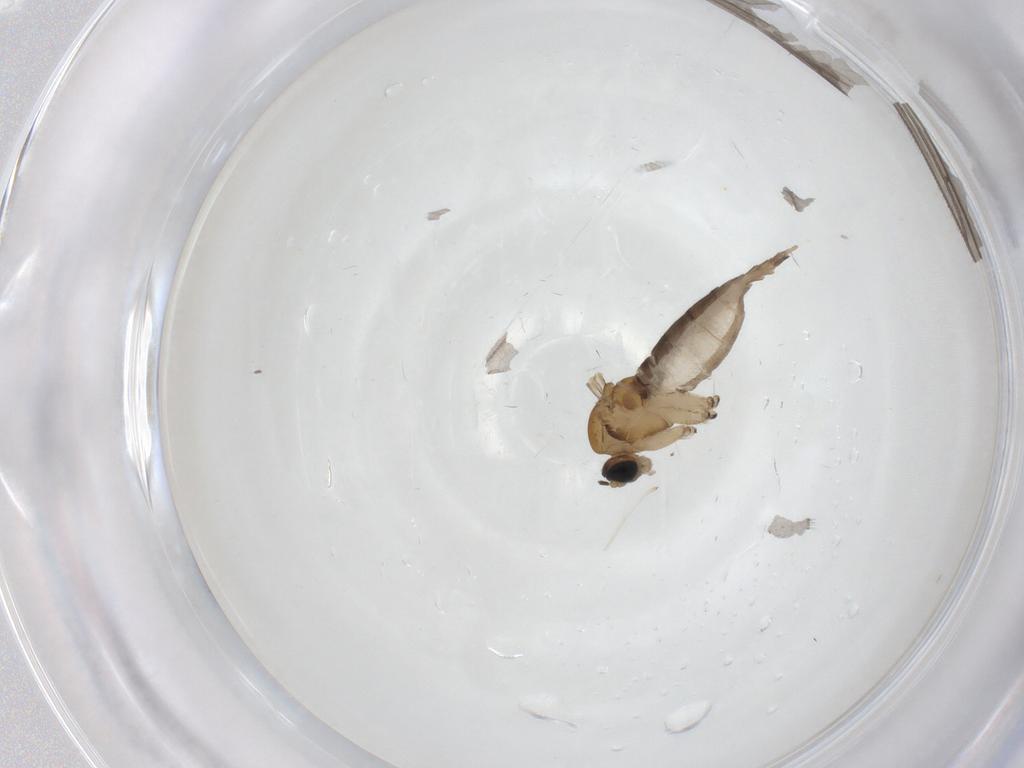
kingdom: Animalia
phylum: Arthropoda
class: Insecta
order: Diptera
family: Sciaridae
